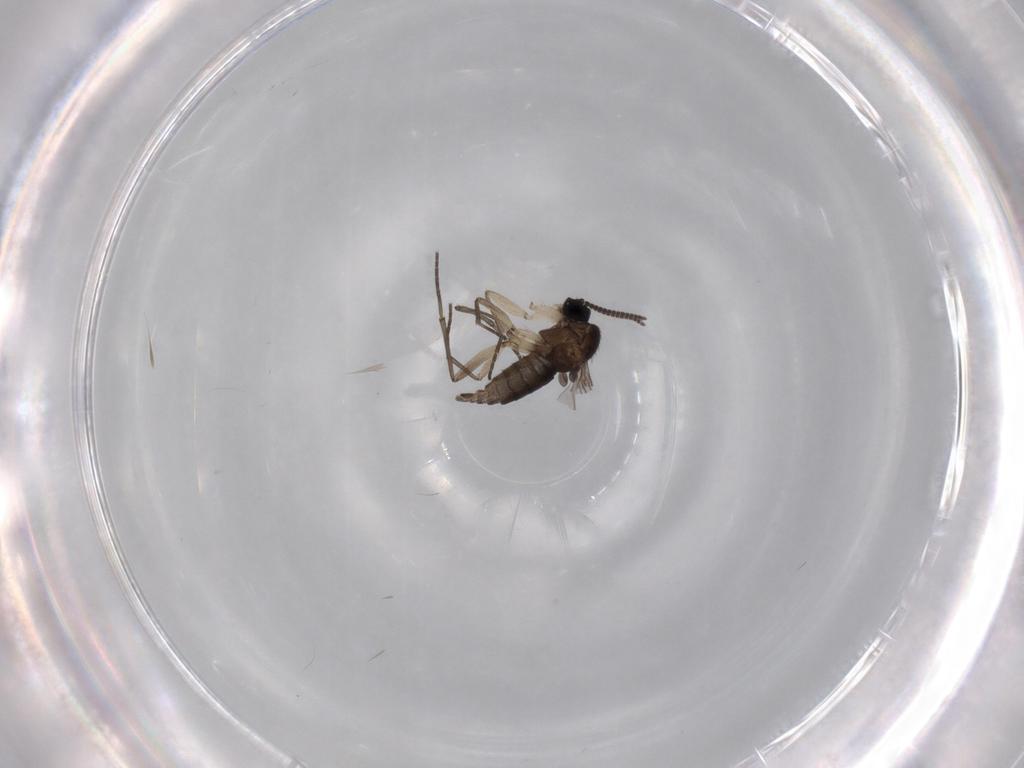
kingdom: Animalia
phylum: Arthropoda
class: Insecta
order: Diptera
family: Sciaridae
